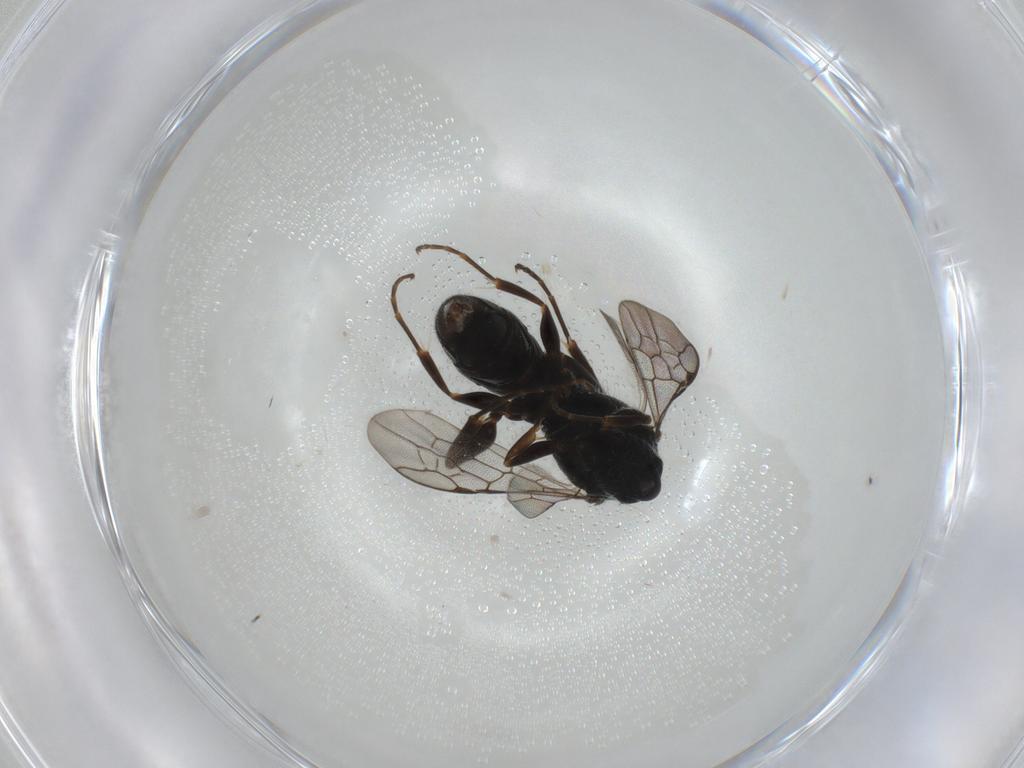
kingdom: Animalia
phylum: Arthropoda
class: Insecta
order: Hymenoptera
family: Ampulicidae
